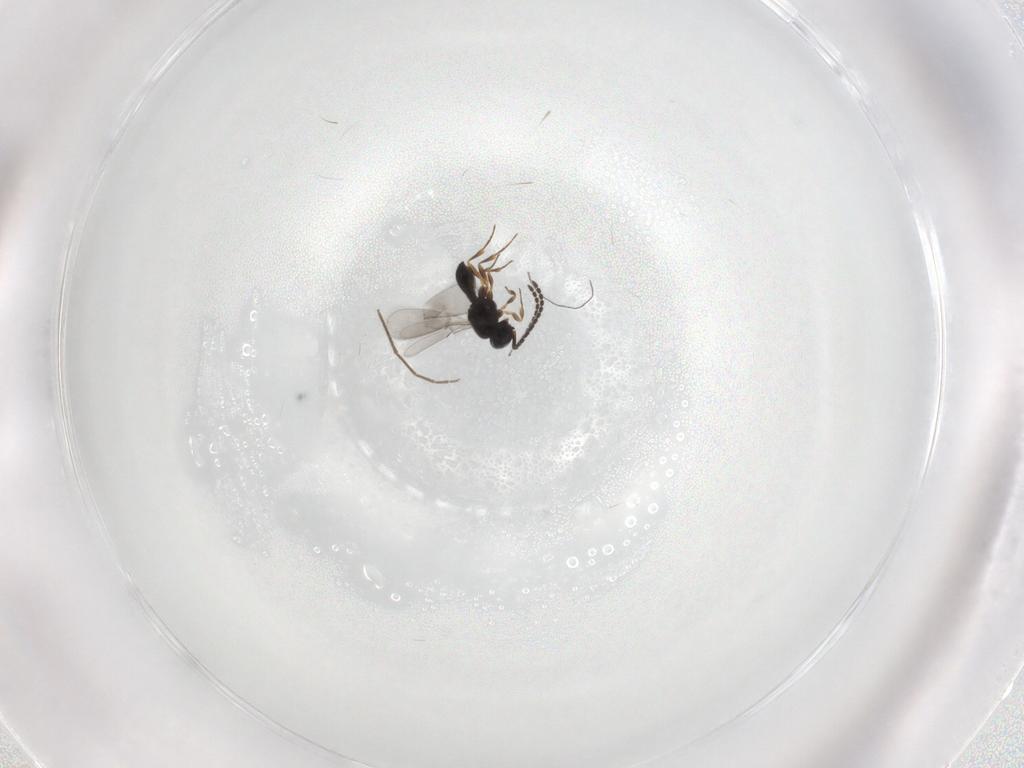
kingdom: Animalia
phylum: Arthropoda
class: Insecta
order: Hymenoptera
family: Scelionidae
